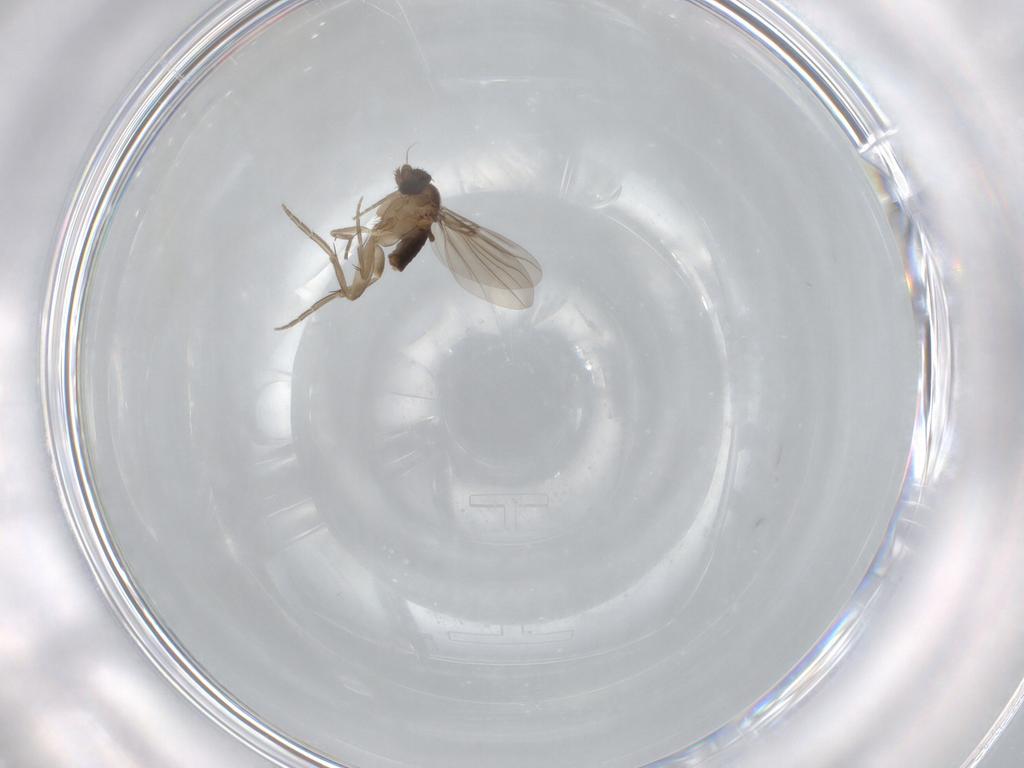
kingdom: Animalia
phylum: Arthropoda
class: Insecta
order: Diptera
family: Phoridae
